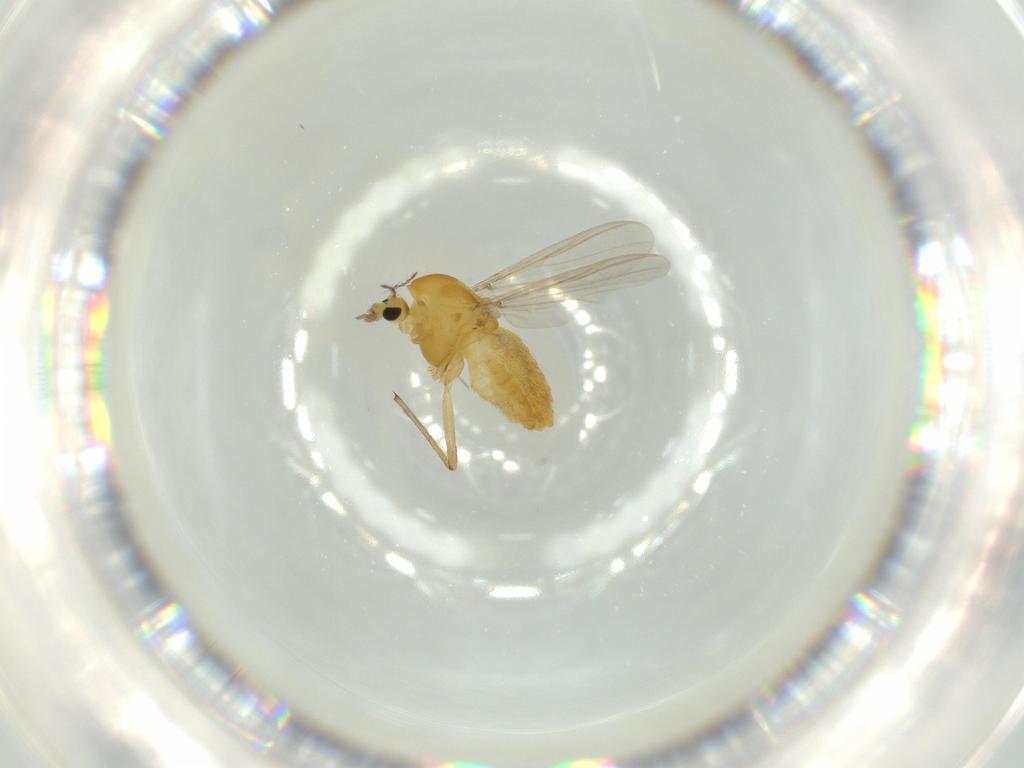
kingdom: Animalia
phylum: Arthropoda
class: Insecta
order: Diptera
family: Chironomidae
